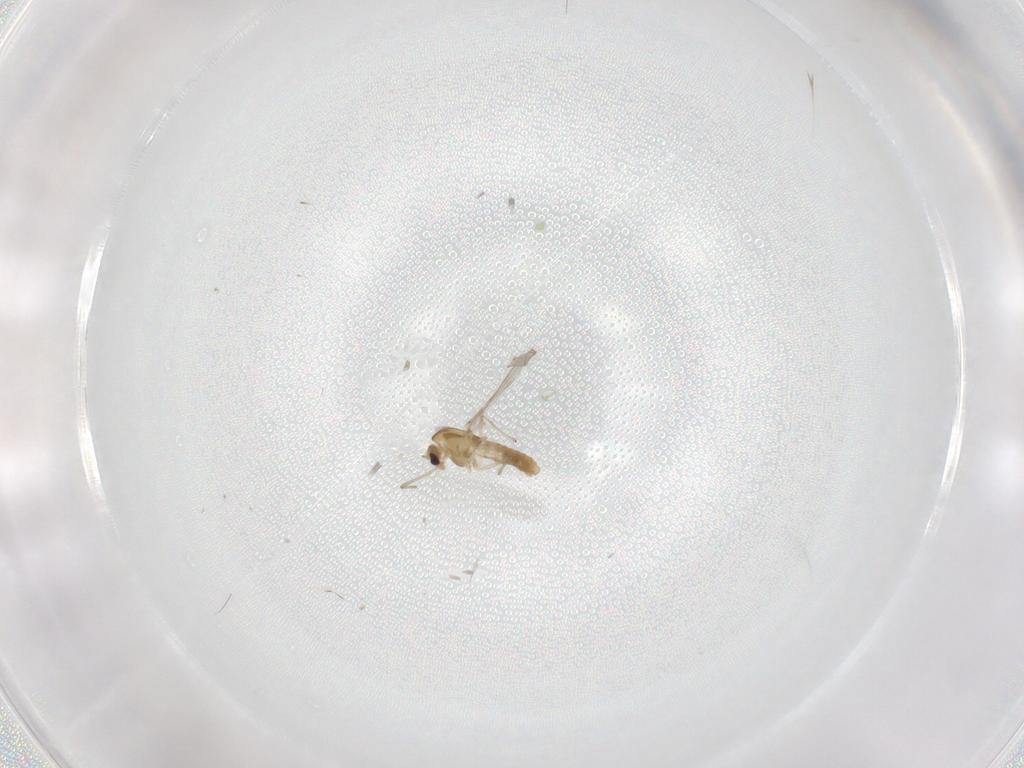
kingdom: Animalia
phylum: Arthropoda
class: Insecta
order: Diptera
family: Chironomidae
